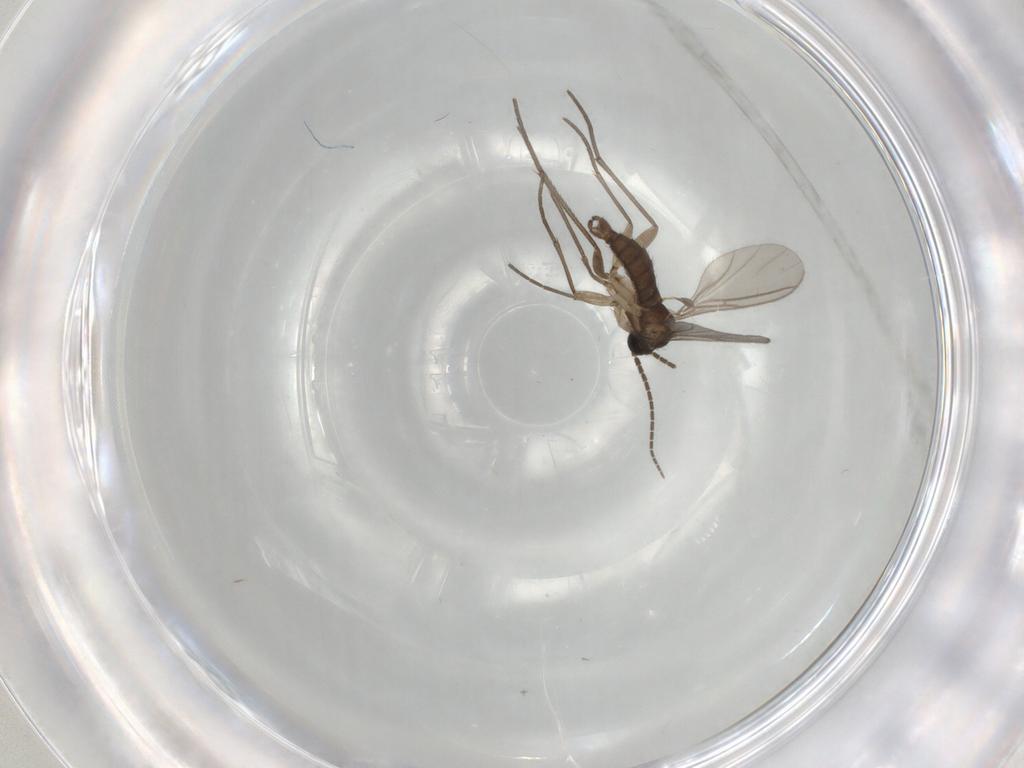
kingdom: Animalia
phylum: Arthropoda
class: Insecta
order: Diptera
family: Sciaridae
